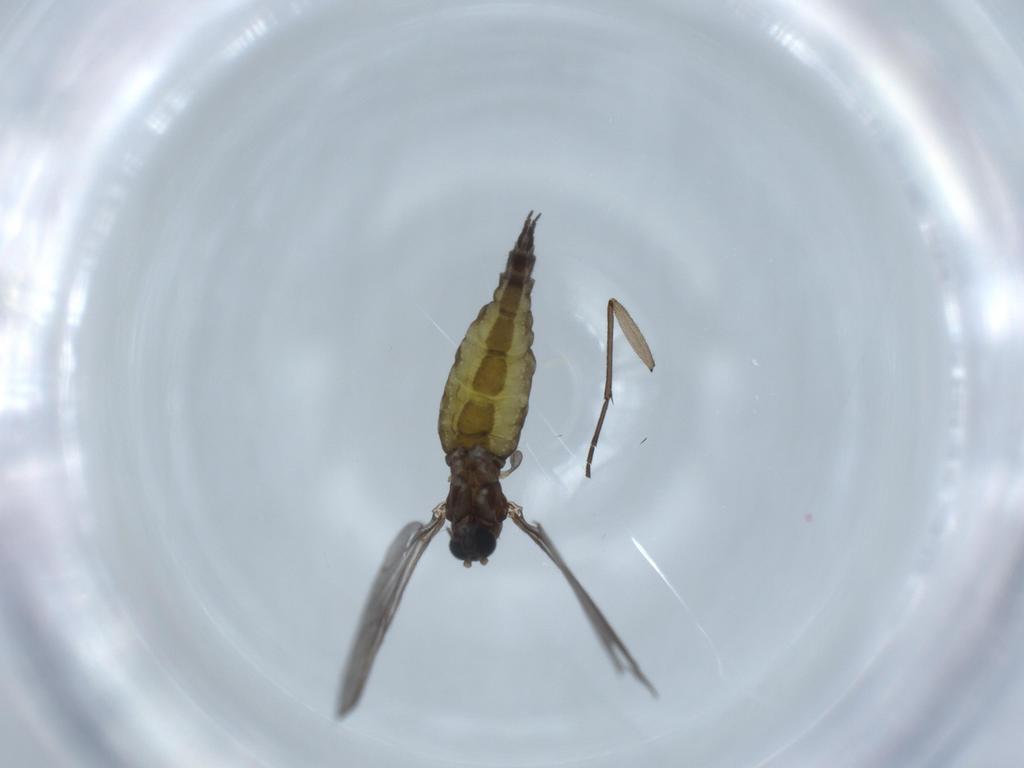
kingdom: Animalia
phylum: Arthropoda
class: Insecta
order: Diptera
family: Sciaridae
